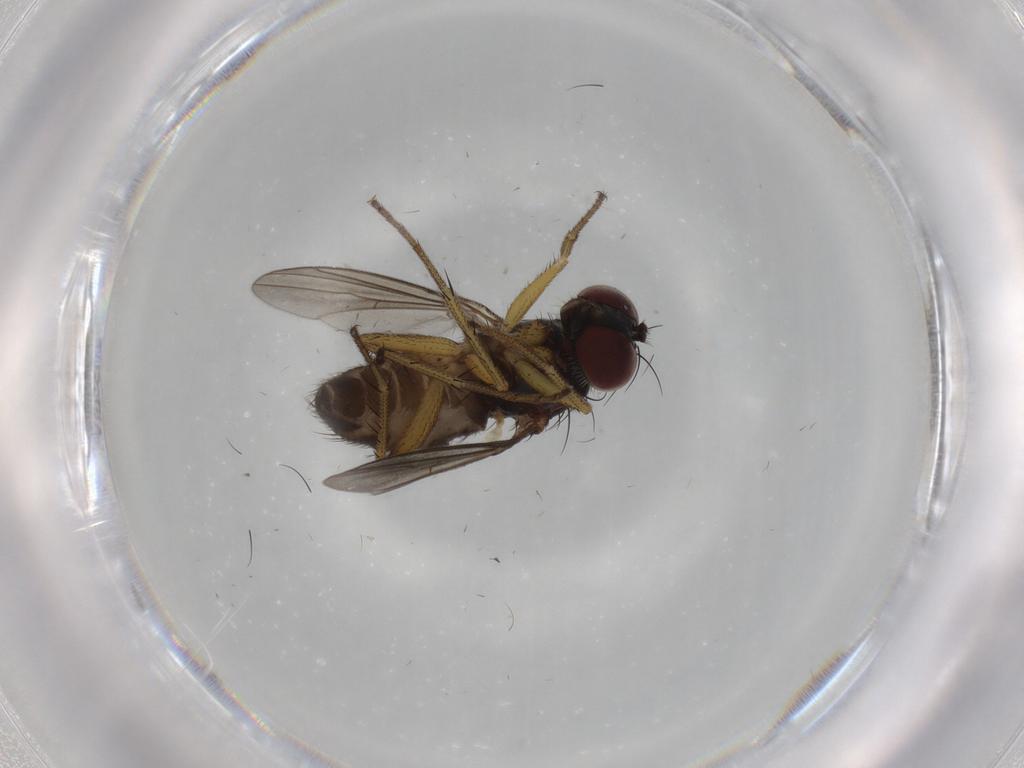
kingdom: Animalia
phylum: Arthropoda
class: Insecta
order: Diptera
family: Dolichopodidae
